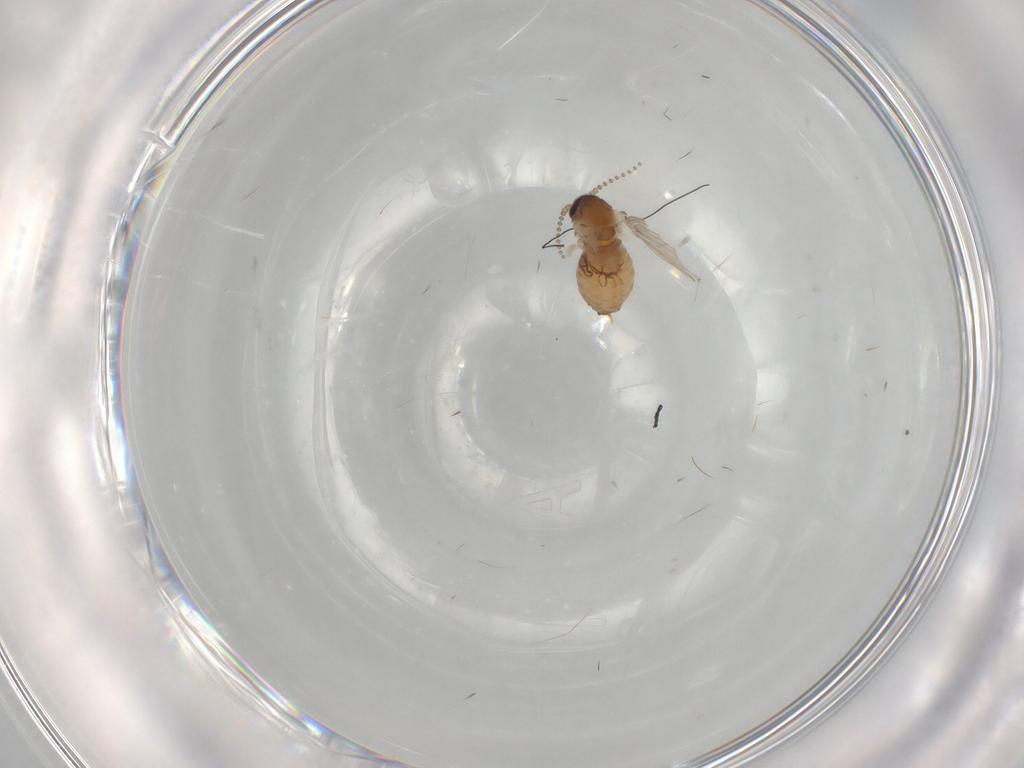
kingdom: Animalia
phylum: Arthropoda
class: Insecta
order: Diptera
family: Psychodidae
